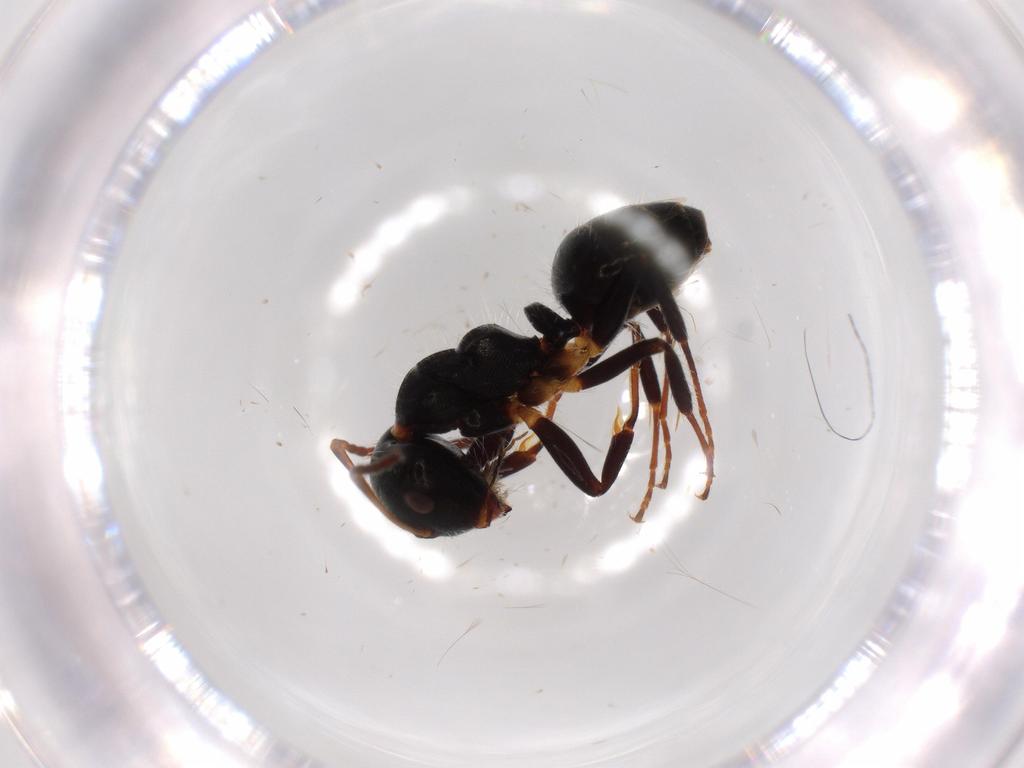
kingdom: Animalia
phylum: Arthropoda
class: Insecta
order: Hymenoptera
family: Formicidae
